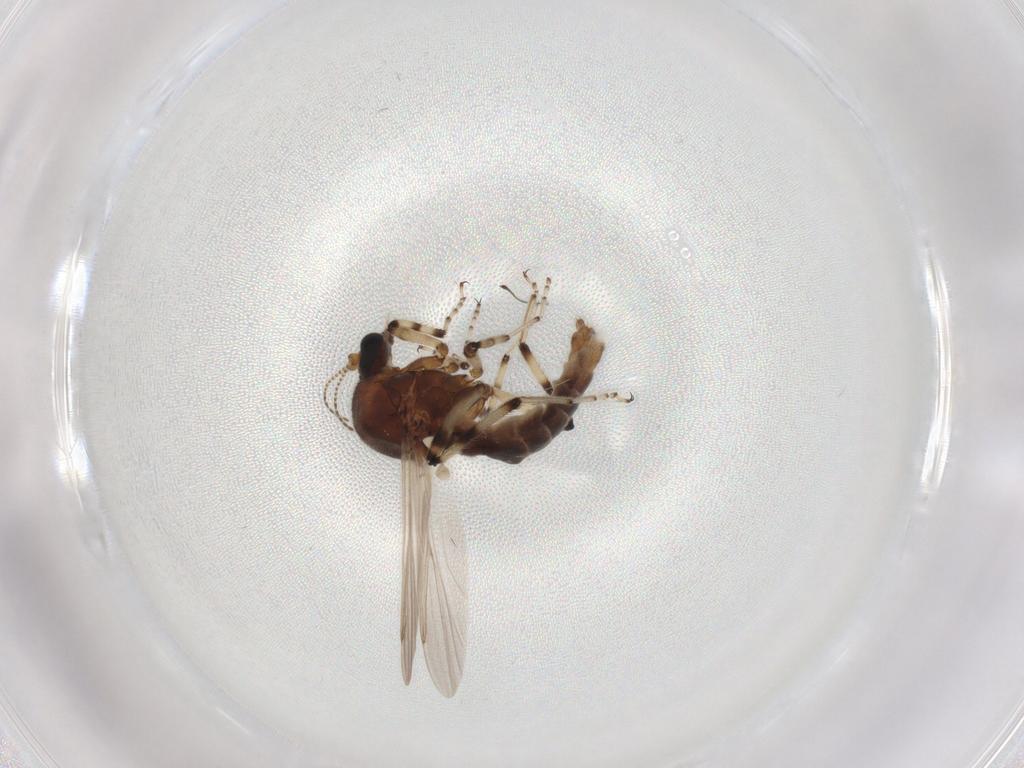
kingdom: Animalia
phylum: Arthropoda
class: Insecta
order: Diptera
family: Ceratopogonidae
